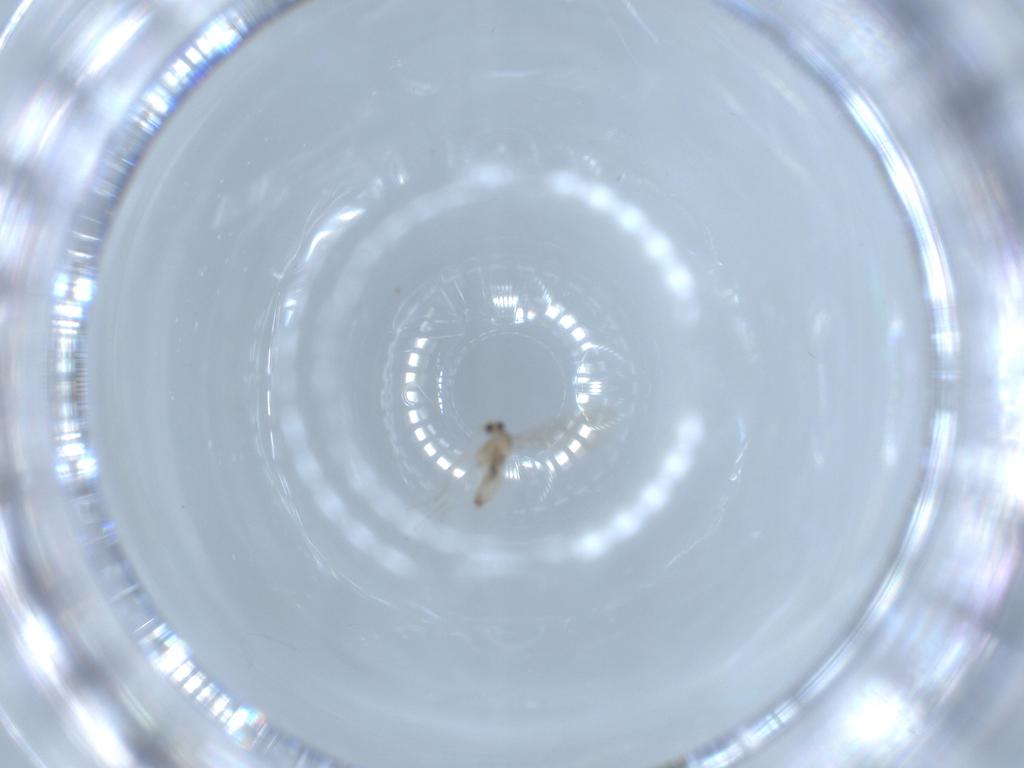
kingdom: Animalia
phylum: Arthropoda
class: Insecta
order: Diptera
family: Cecidomyiidae
